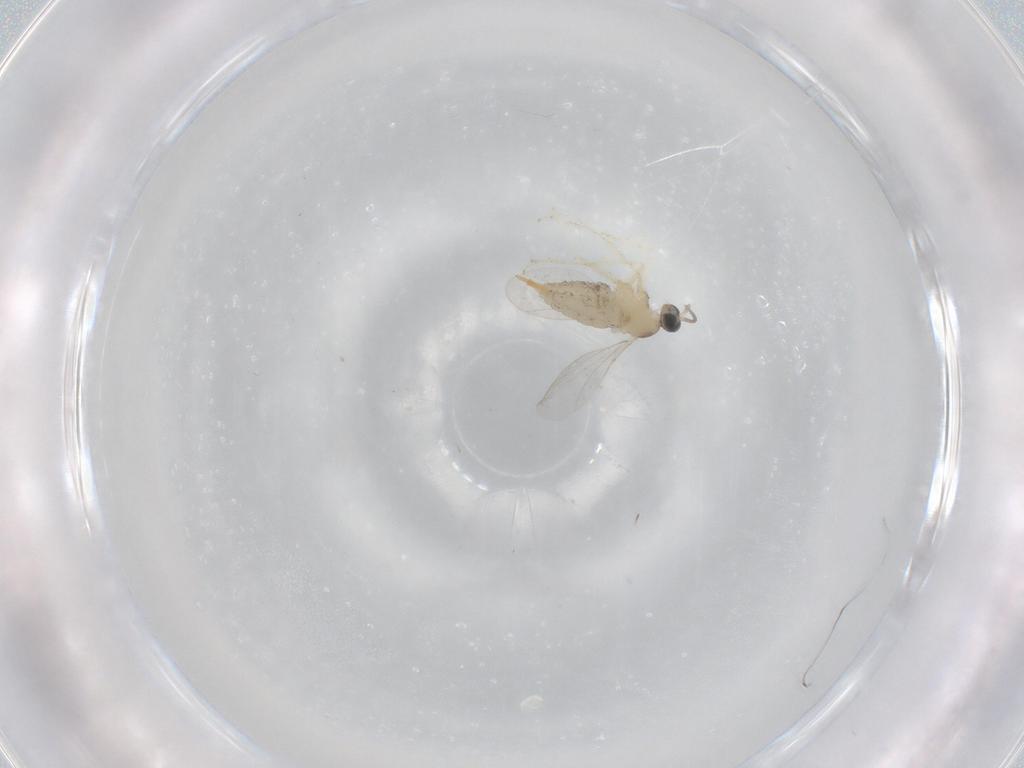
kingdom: Animalia
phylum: Arthropoda
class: Insecta
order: Diptera
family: Cecidomyiidae
